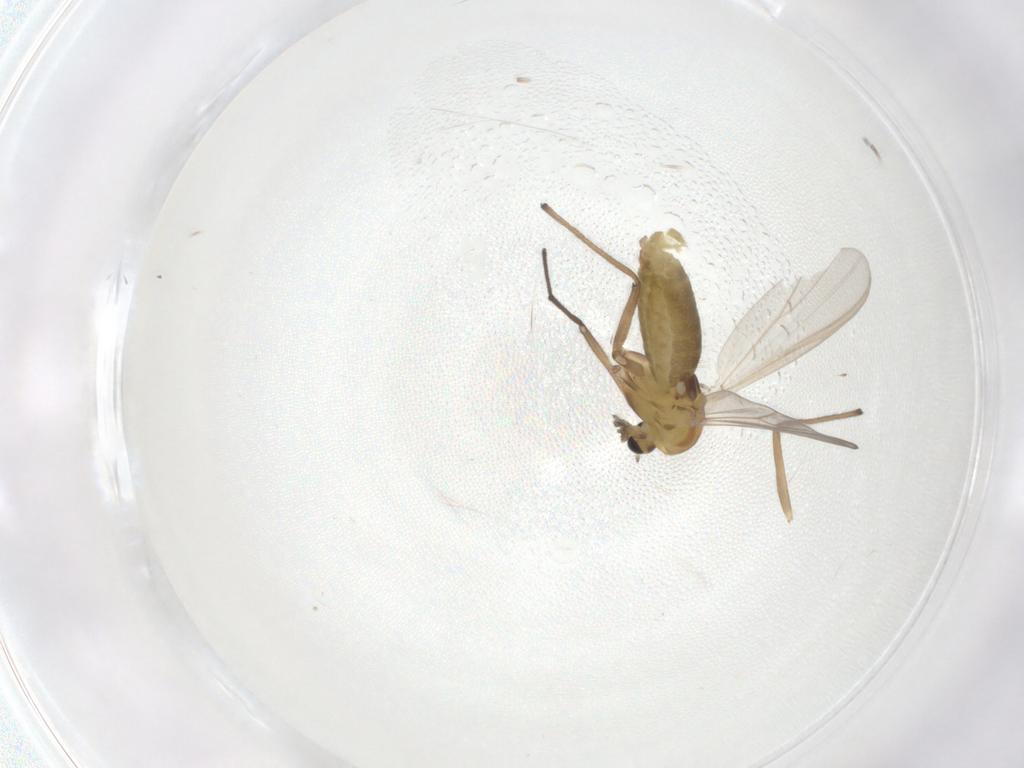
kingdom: Animalia
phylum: Arthropoda
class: Insecta
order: Diptera
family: Chironomidae
